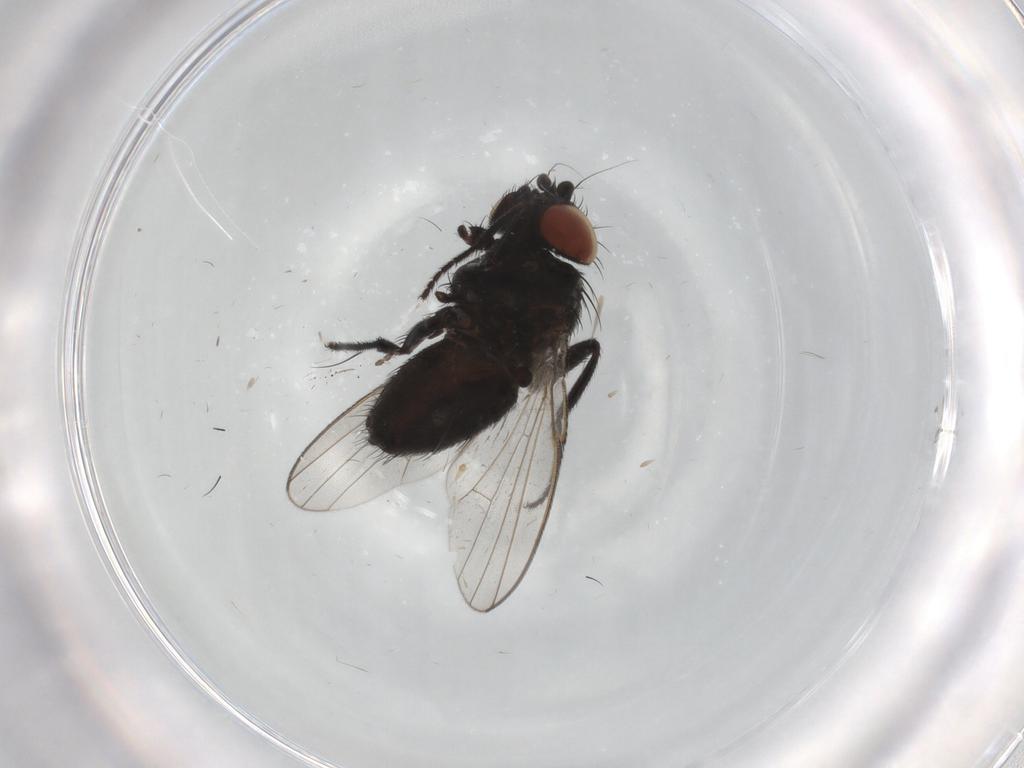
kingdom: Animalia
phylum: Arthropoda
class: Insecta
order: Diptera
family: Milichiidae
